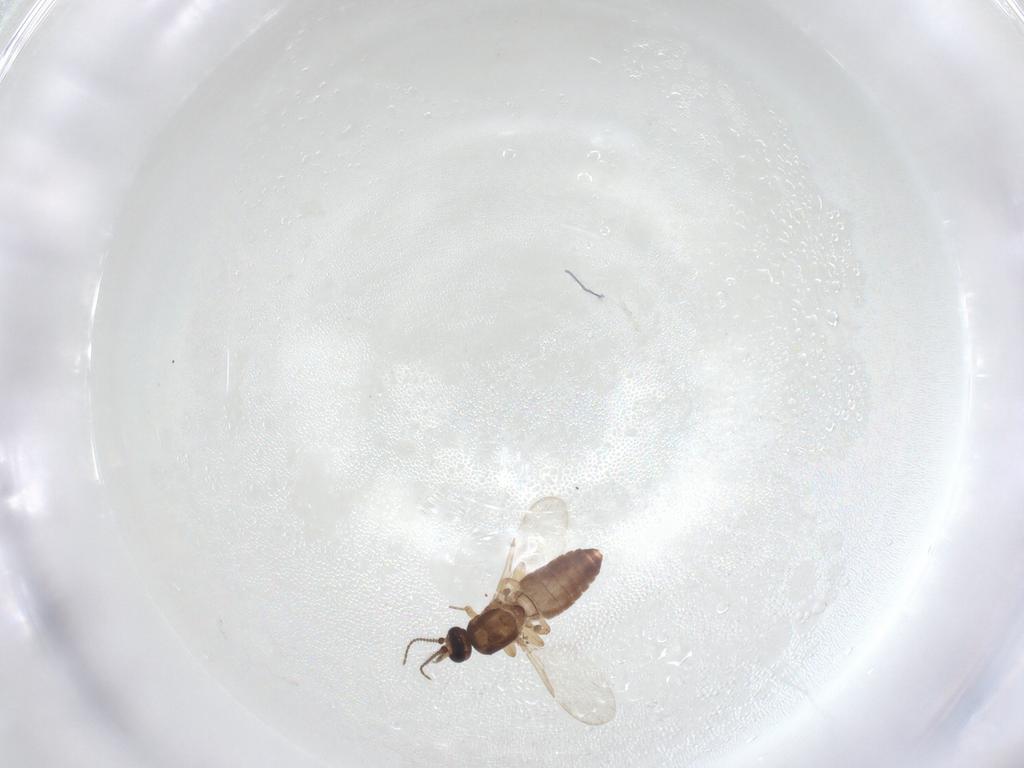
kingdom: Animalia
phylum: Arthropoda
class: Insecta
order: Diptera
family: Ceratopogonidae
